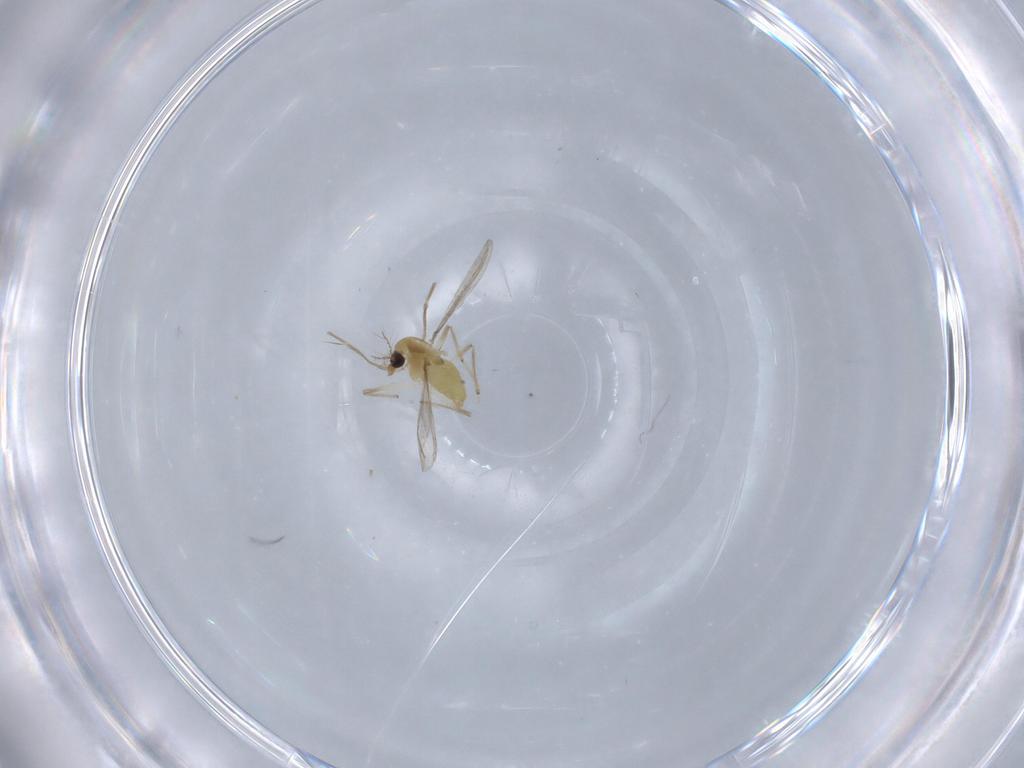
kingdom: Animalia
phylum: Arthropoda
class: Insecta
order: Diptera
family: Chironomidae
